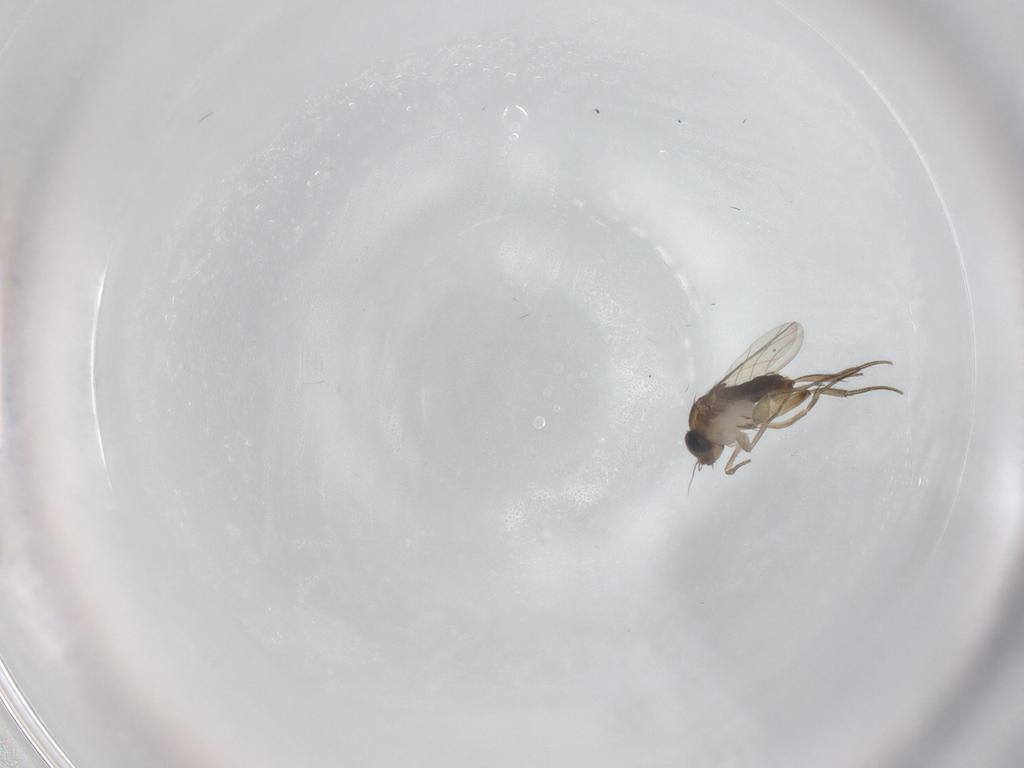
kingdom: Animalia
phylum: Arthropoda
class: Insecta
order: Diptera
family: Phoridae
